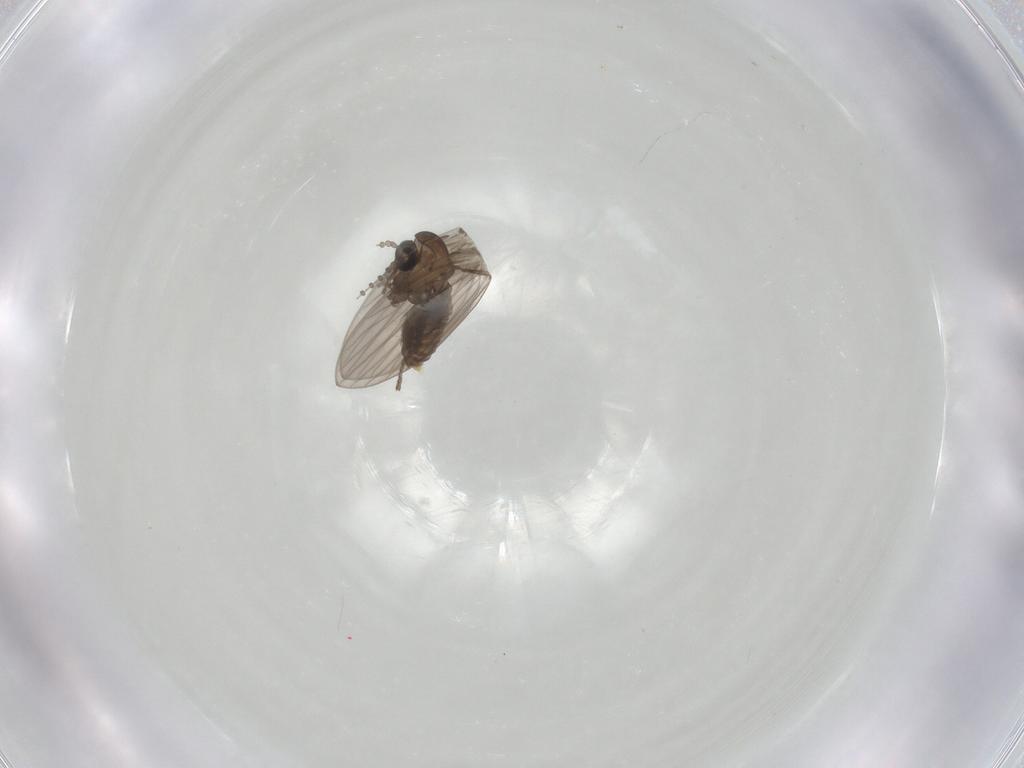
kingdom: Animalia
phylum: Arthropoda
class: Insecta
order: Diptera
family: Psychodidae
